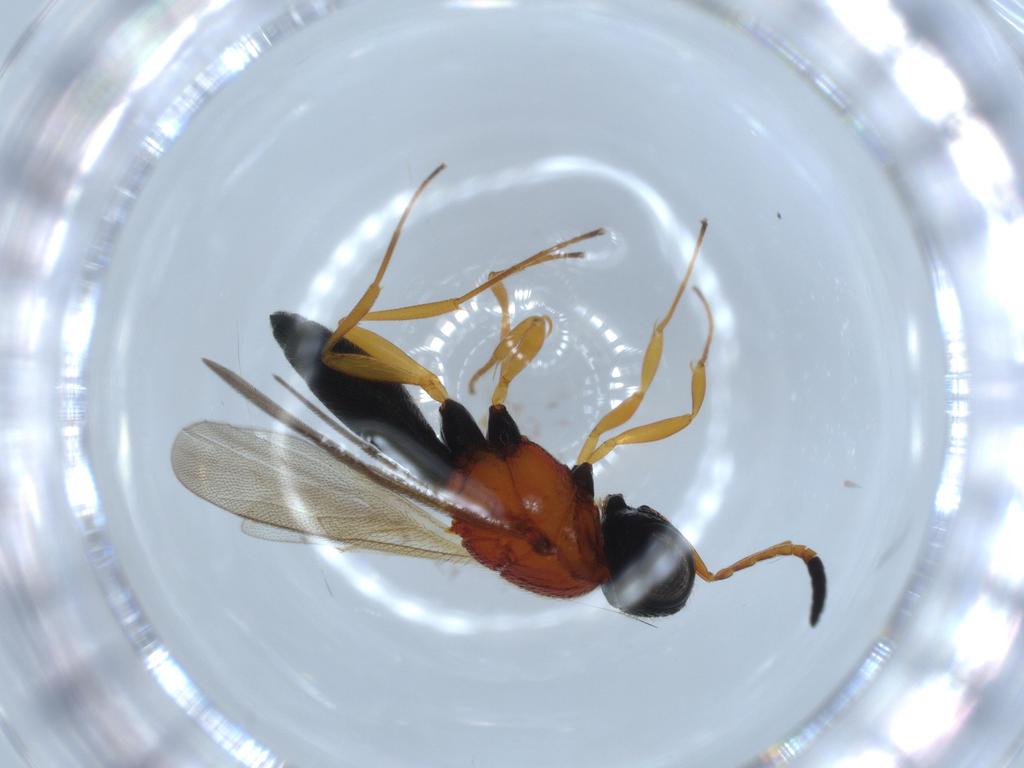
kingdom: Animalia
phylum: Arthropoda
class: Insecta
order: Hymenoptera
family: Scelionidae
